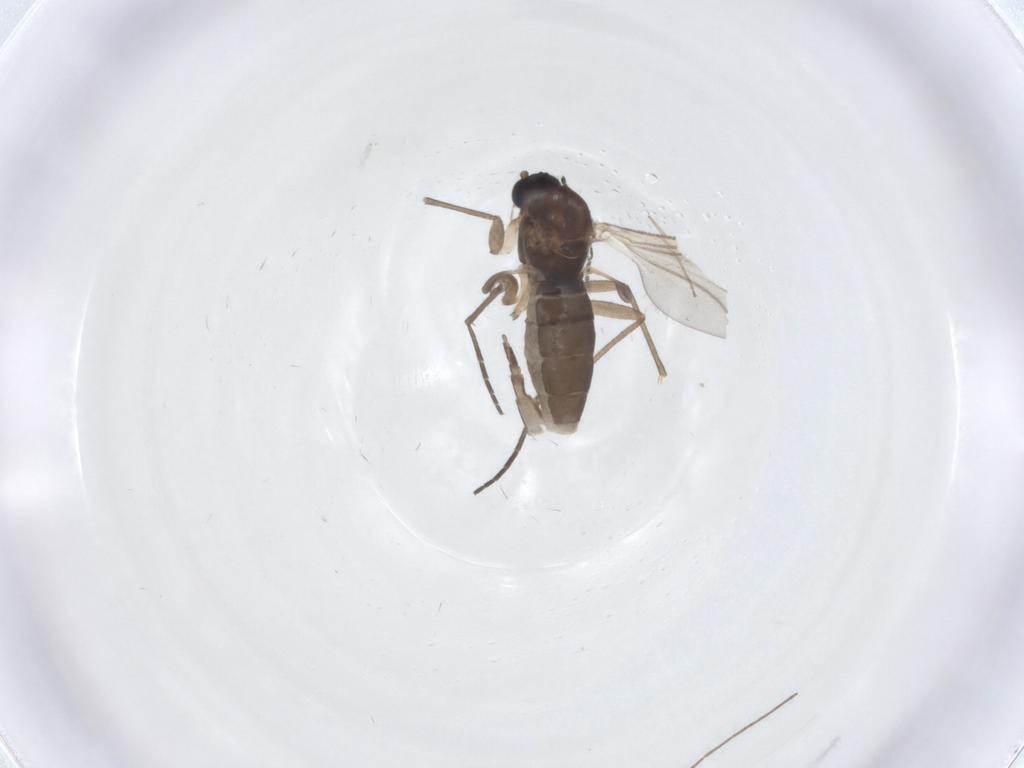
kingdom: Animalia
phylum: Arthropoda
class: Insecta
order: Diptera
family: Sciaridae
